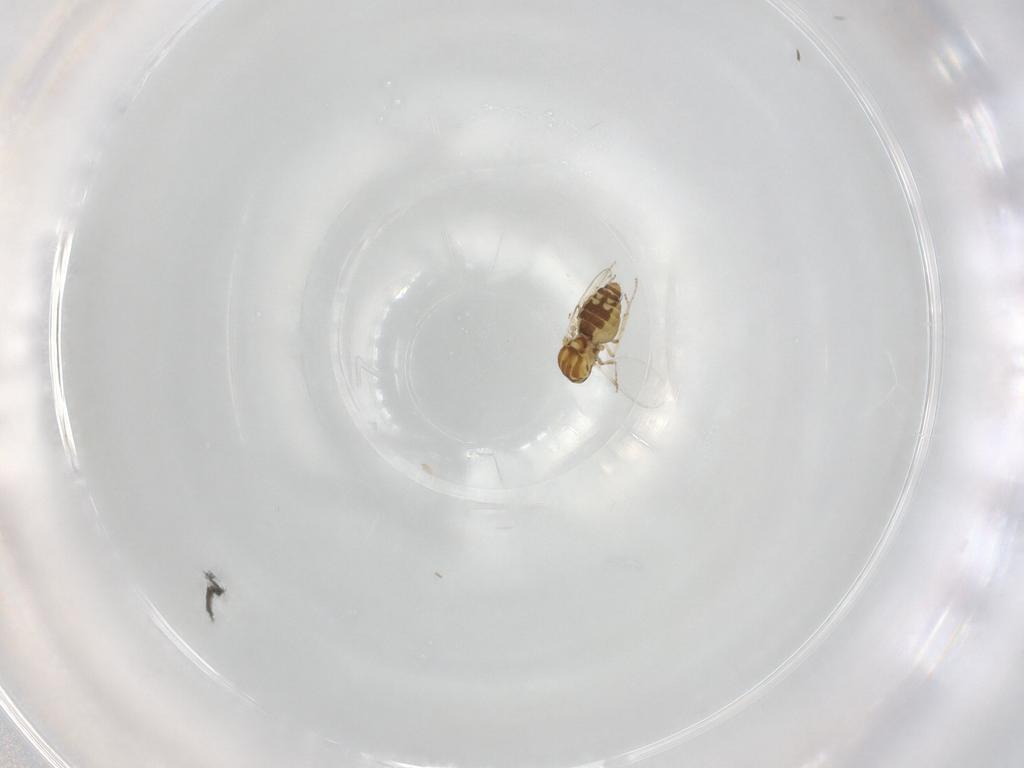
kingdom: Animalia
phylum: Arthropoda
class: Insecta
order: Diptera
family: Ceratopogonidae
